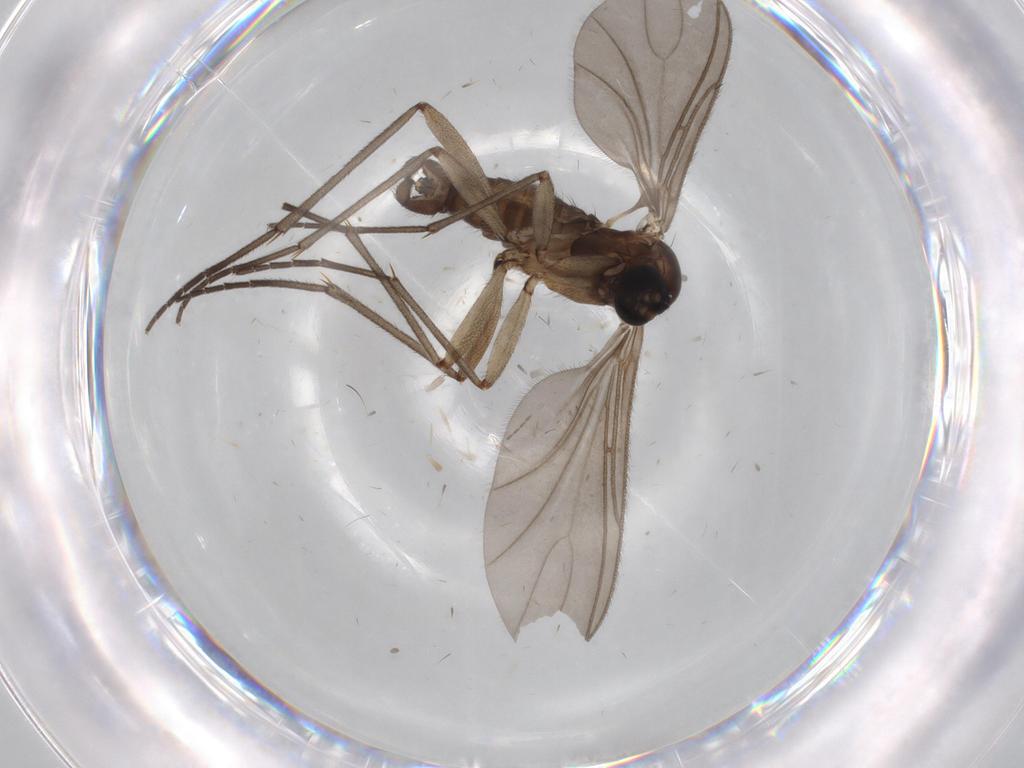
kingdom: Animalia
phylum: Arthropoda
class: Insecta
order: Diptera
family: Sciaridae
